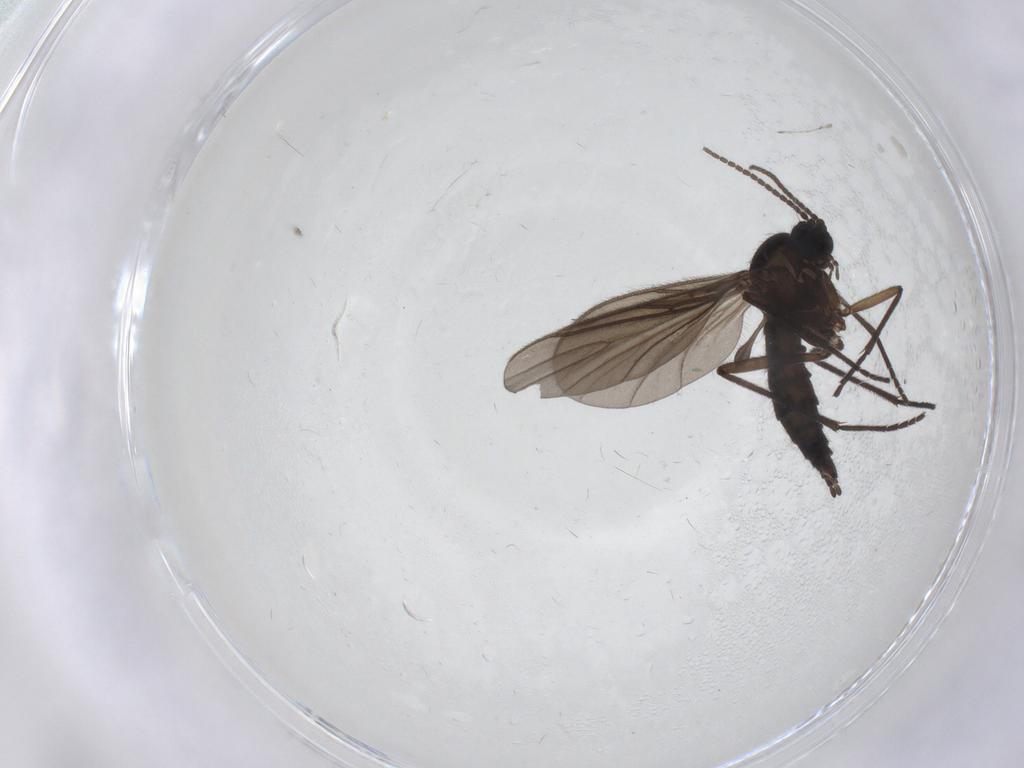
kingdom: Animalia
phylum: Arthropoda
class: Insecta
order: Diptera
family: Sciaridae
